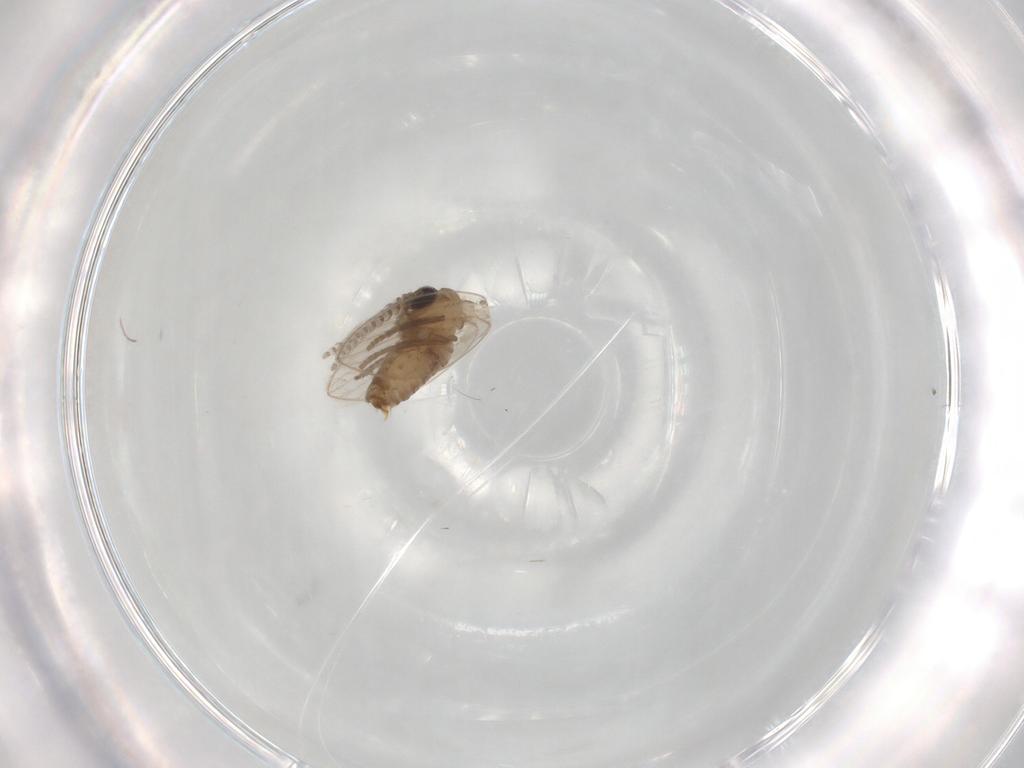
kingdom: Animalia
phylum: Arthropoda
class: Insecta
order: Diptera
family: Psychodidae
